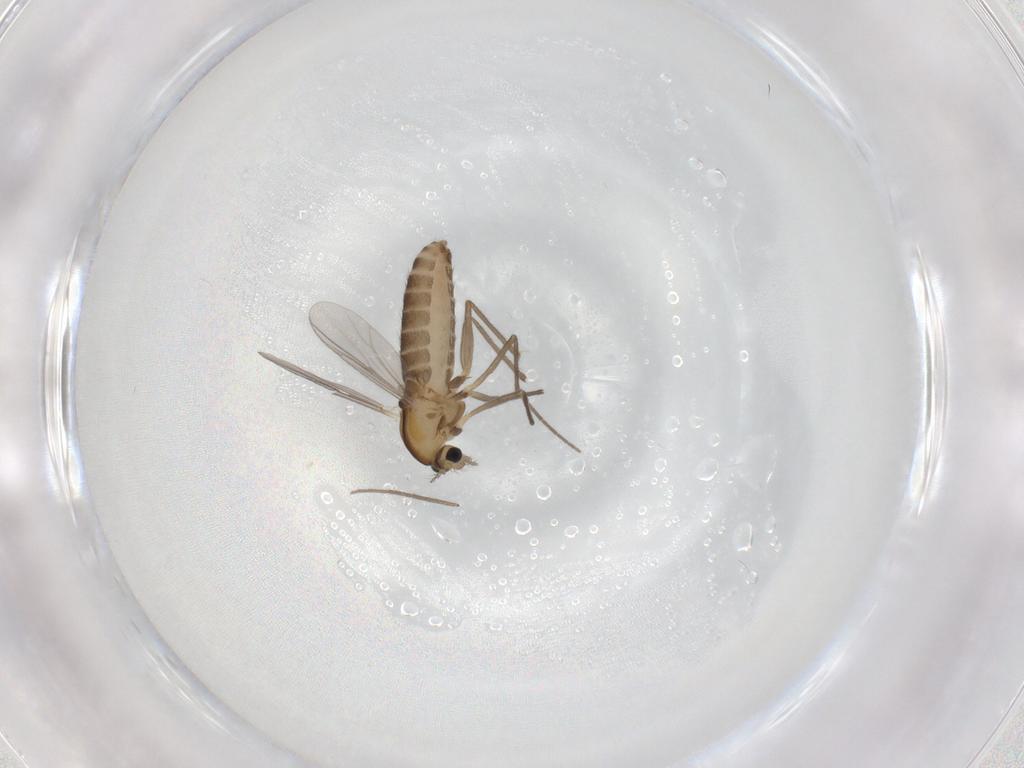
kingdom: Animalia
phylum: Arthropoda
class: Insecta
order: Diptera
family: Chironomidae
